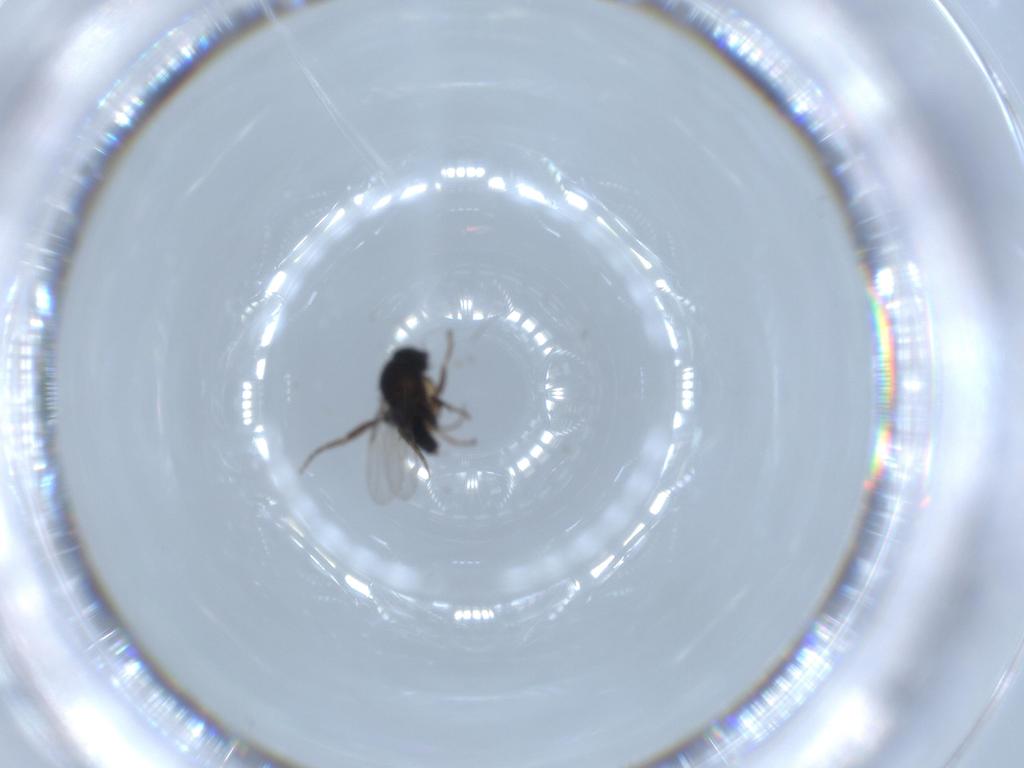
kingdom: Animalia
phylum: Arthropoda
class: Insecta
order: Diptera
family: Phoridae
